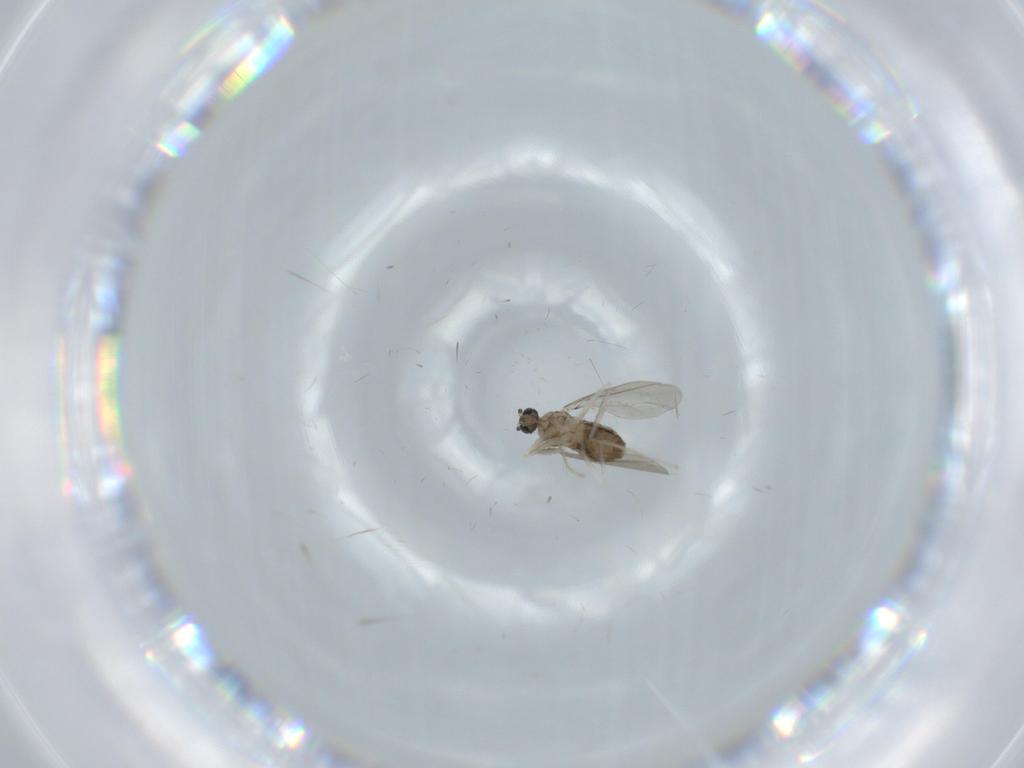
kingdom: Animalia
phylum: Arthropoda
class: Insecta
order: Diptera
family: Cecidomyiidae
